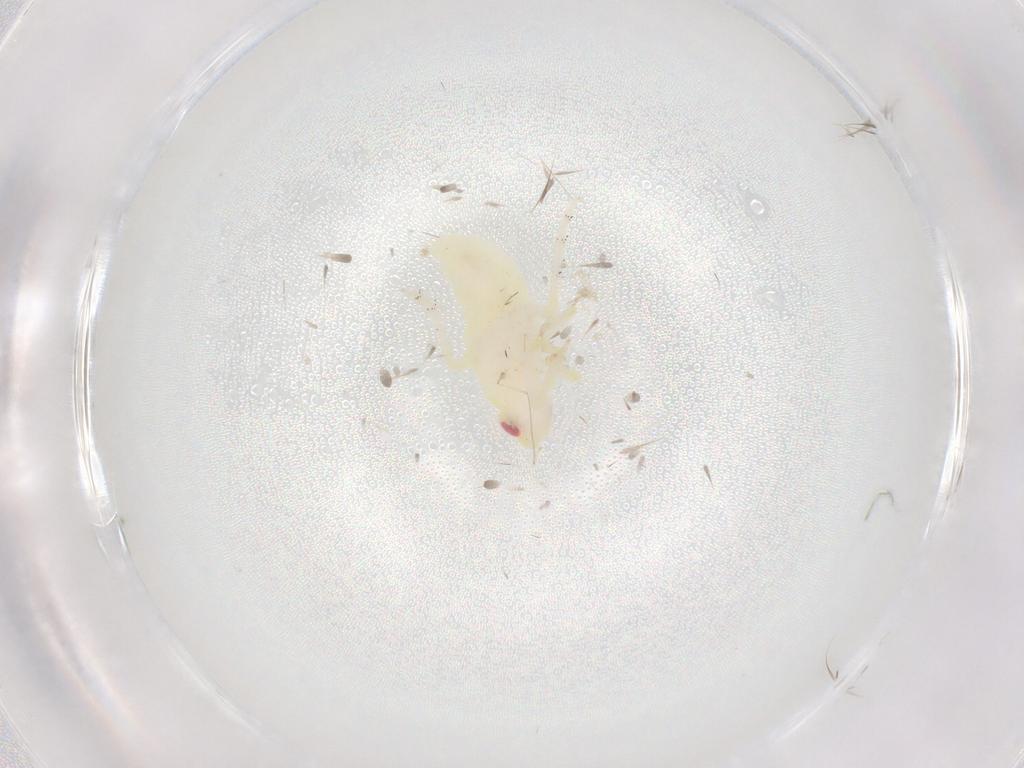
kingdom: Animalia
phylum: Arthropoda
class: Insecta
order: Hemiptera
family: Tropiduchidae
